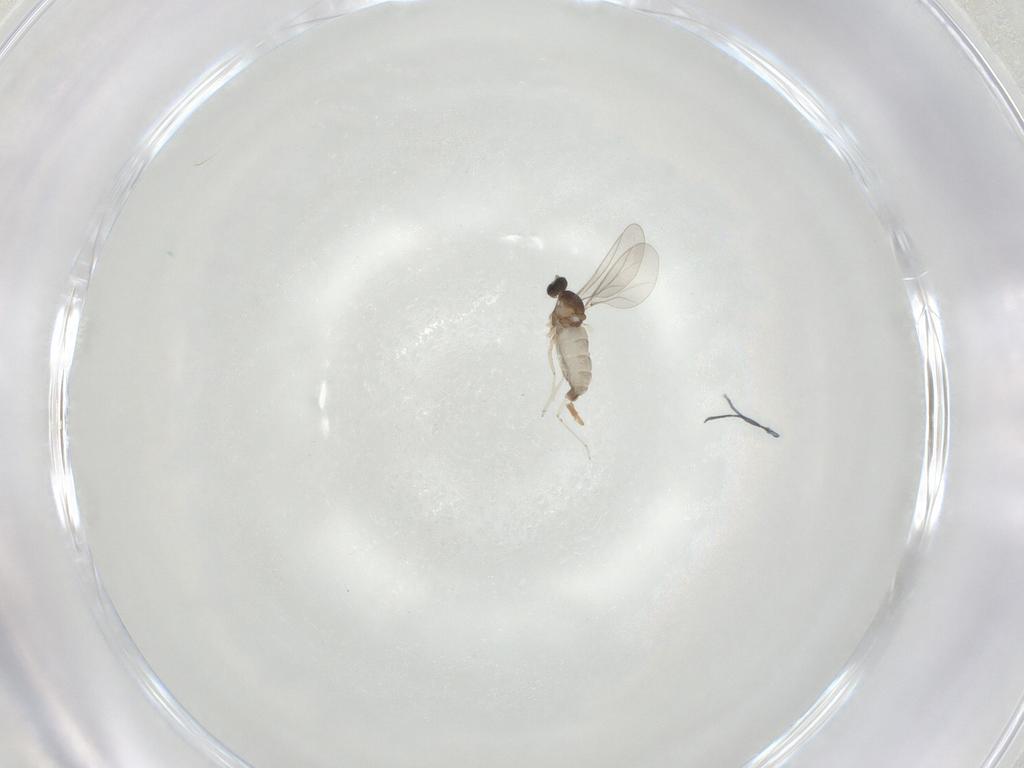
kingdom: Animalia
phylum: Arthropoda
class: Insecta
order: Diptera
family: Cecidomyiidae
